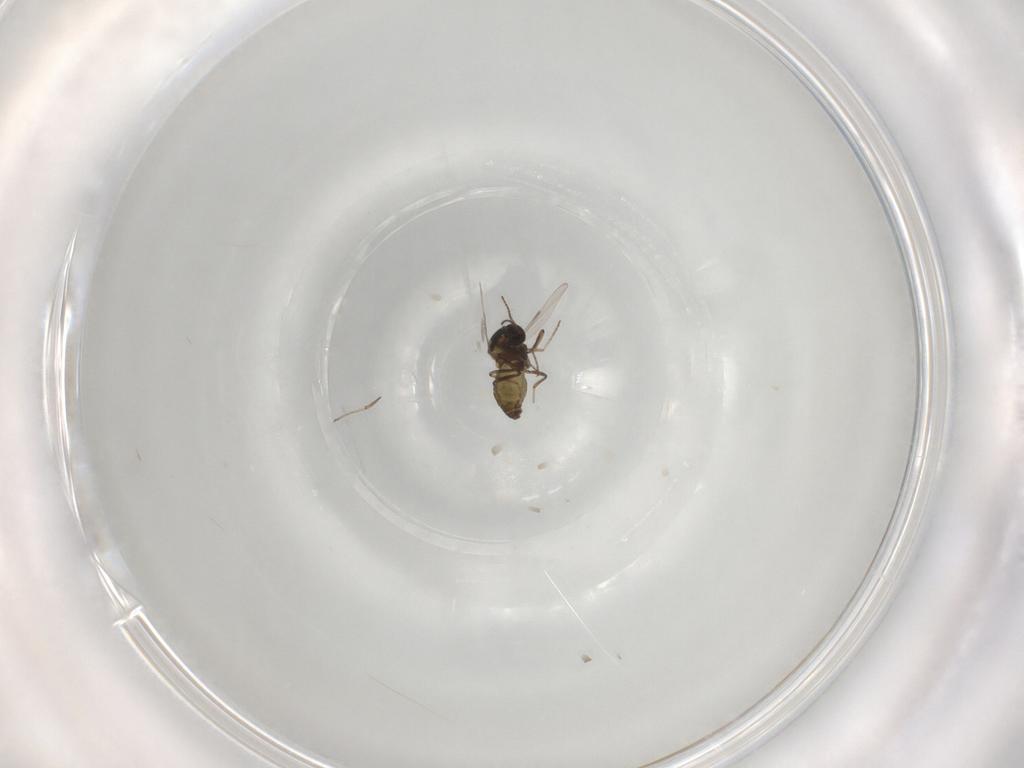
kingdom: Animalia
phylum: Arthropoda
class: Insecta
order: Diptera
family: Ceratopogonidae
